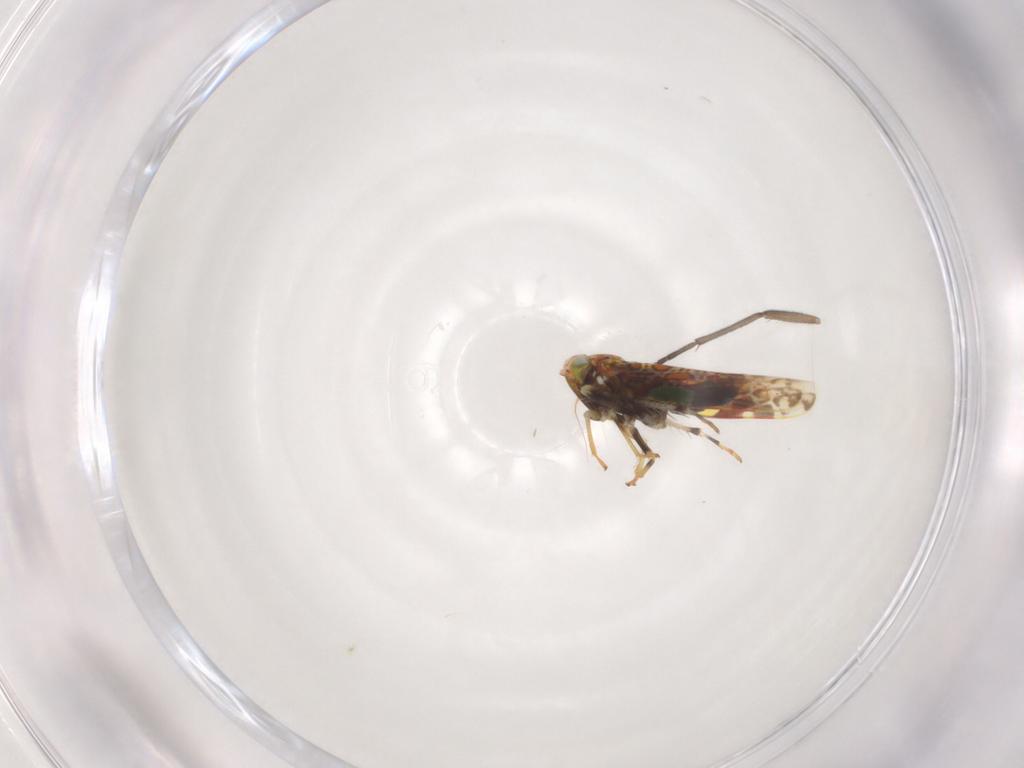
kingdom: Animalia
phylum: Arthropoda
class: Insecta
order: Hemiptera
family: Cicadellidae
